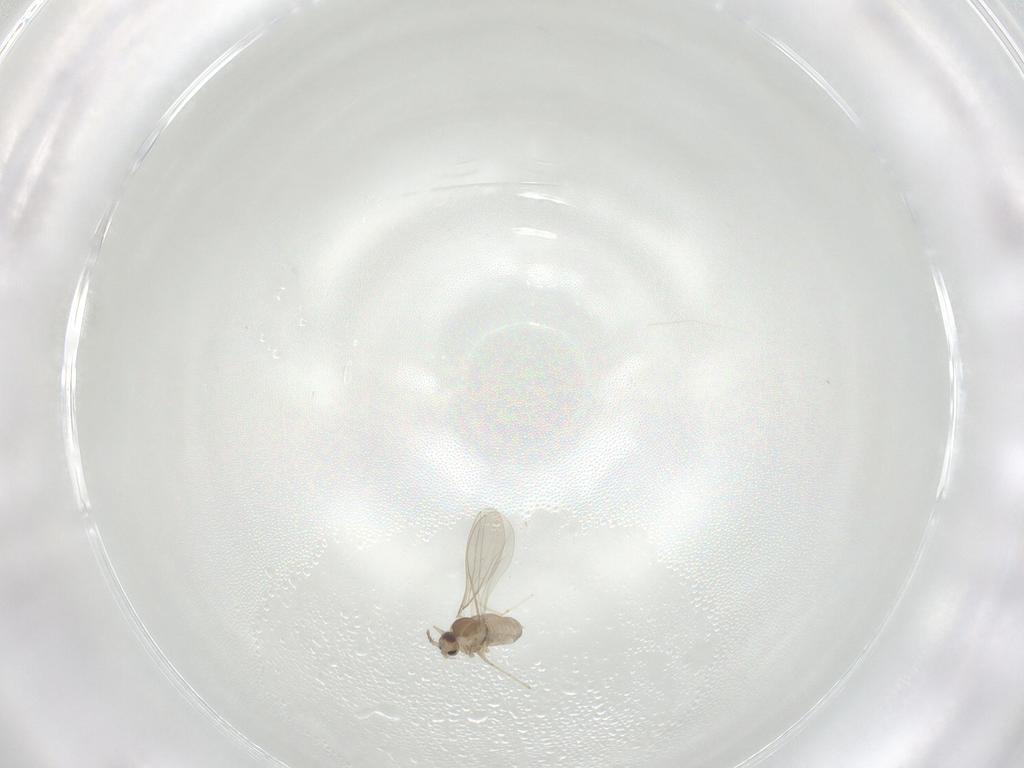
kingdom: Animalia
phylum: Arthropoda
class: Insecta
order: Diptera
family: Cecidomyiidae
